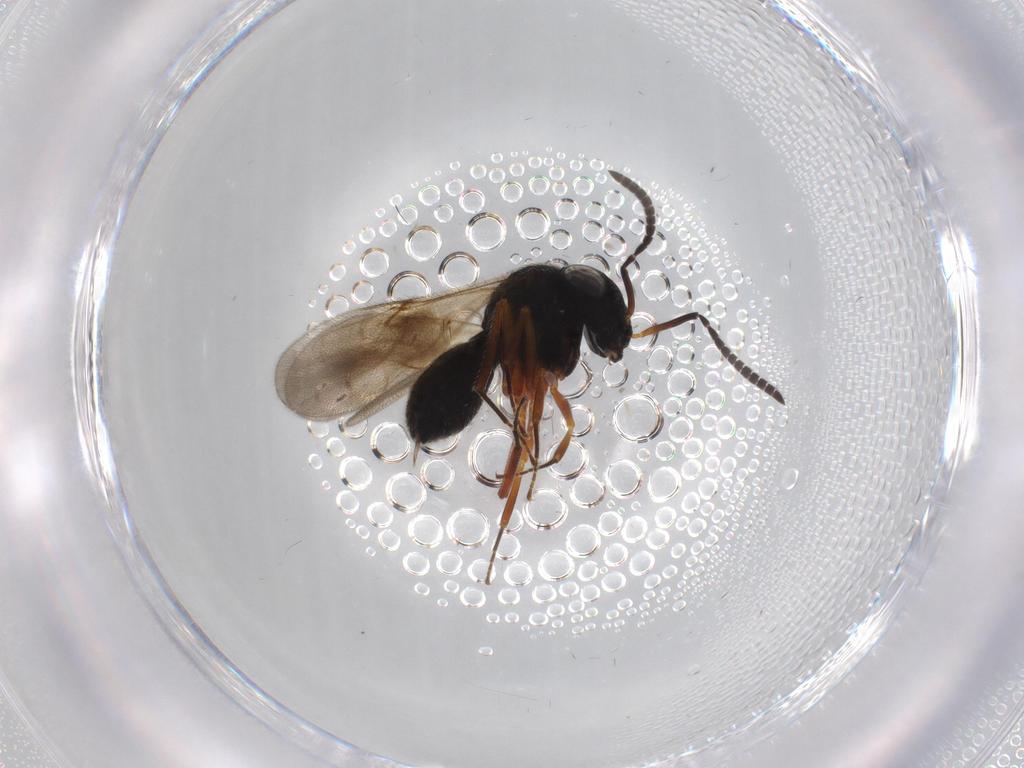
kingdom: Animalia
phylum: Arthropoda
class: Insecta
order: Hymenoptera
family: Scelionidae
